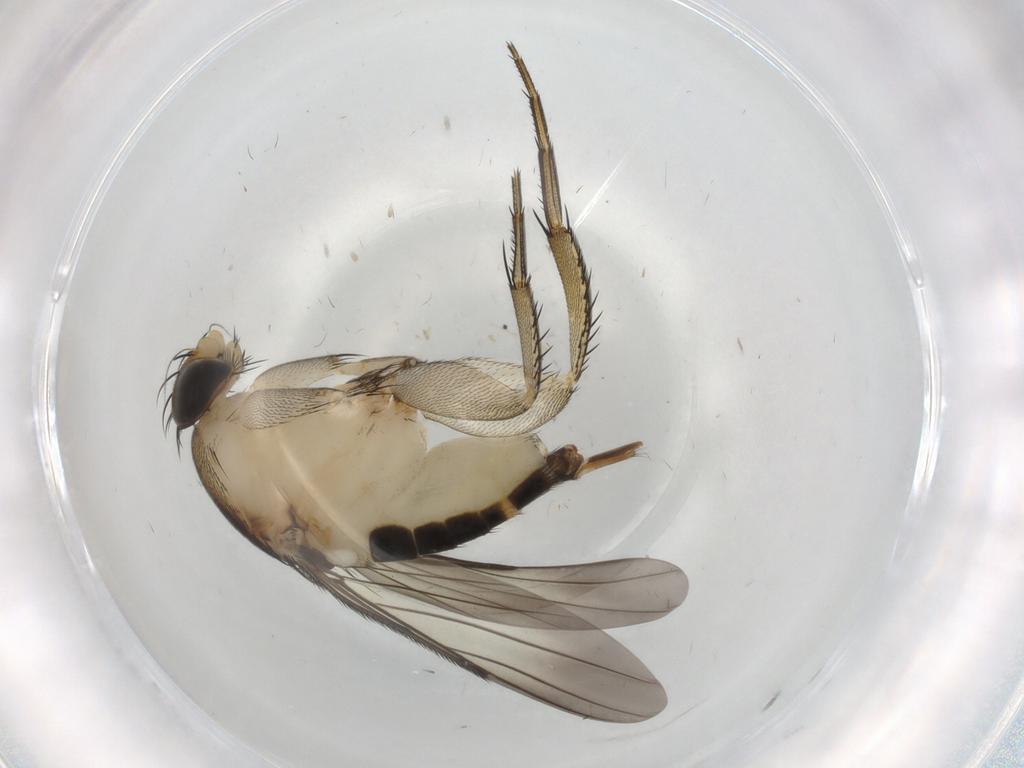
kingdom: Animalia
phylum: Arthropoda
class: Insecta
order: Diptera
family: Phoridae
